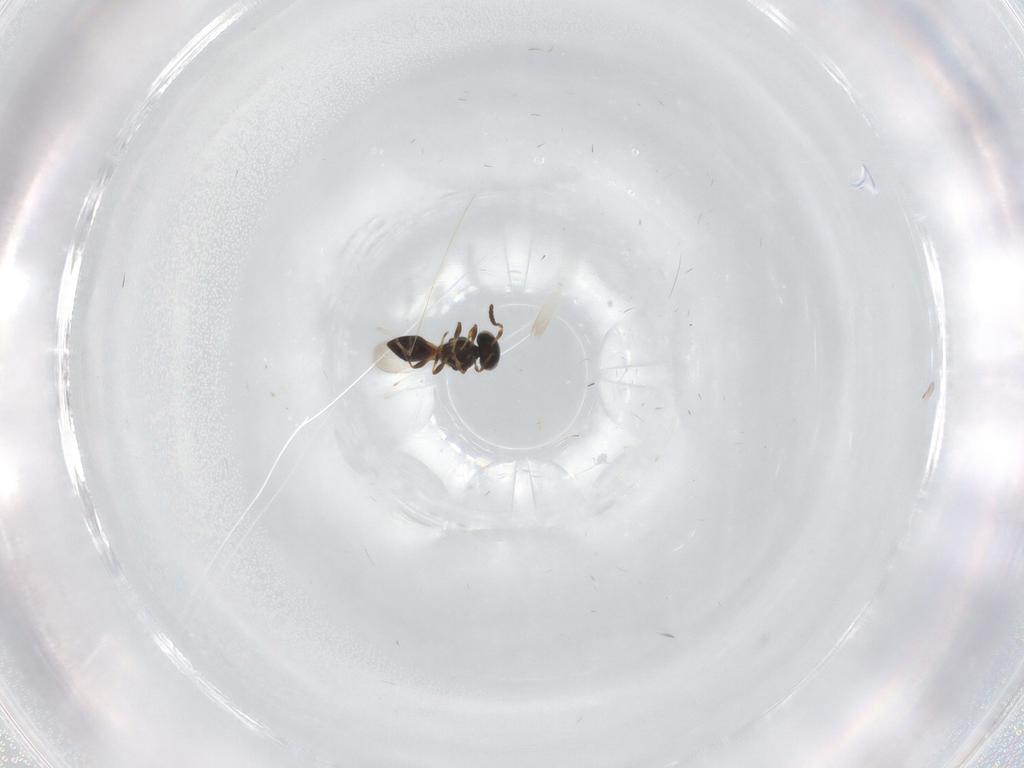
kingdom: Animalia
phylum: Arthropoda
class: Insecta
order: Hymenoptera
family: Platygastridae
